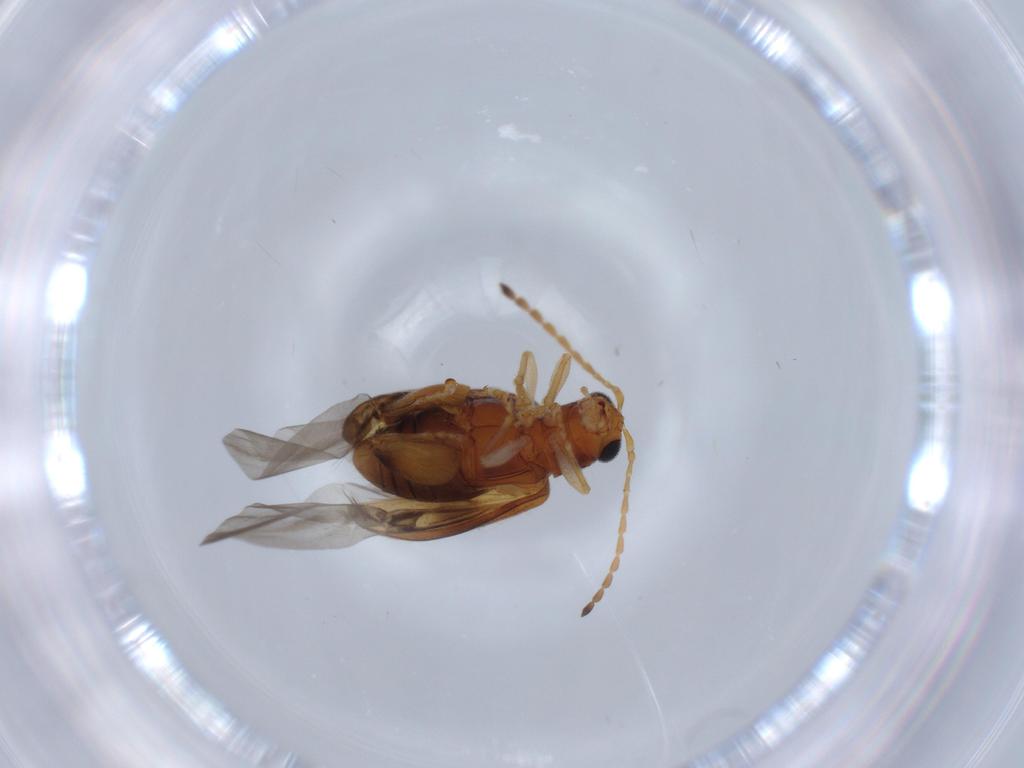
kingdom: Animalia
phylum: Arthropoda
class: Insecta
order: Coleoptera
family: Chrysomelidae
